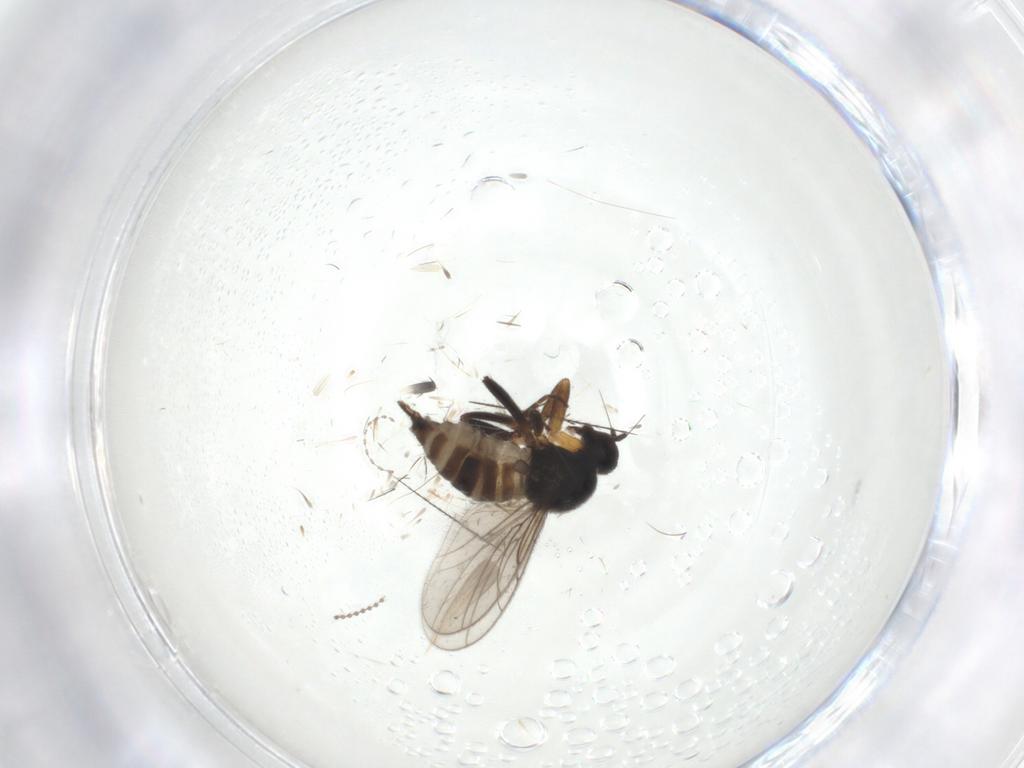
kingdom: Animalia
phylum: Arthropoda
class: Insecta
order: Diptera
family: Hybotidae
